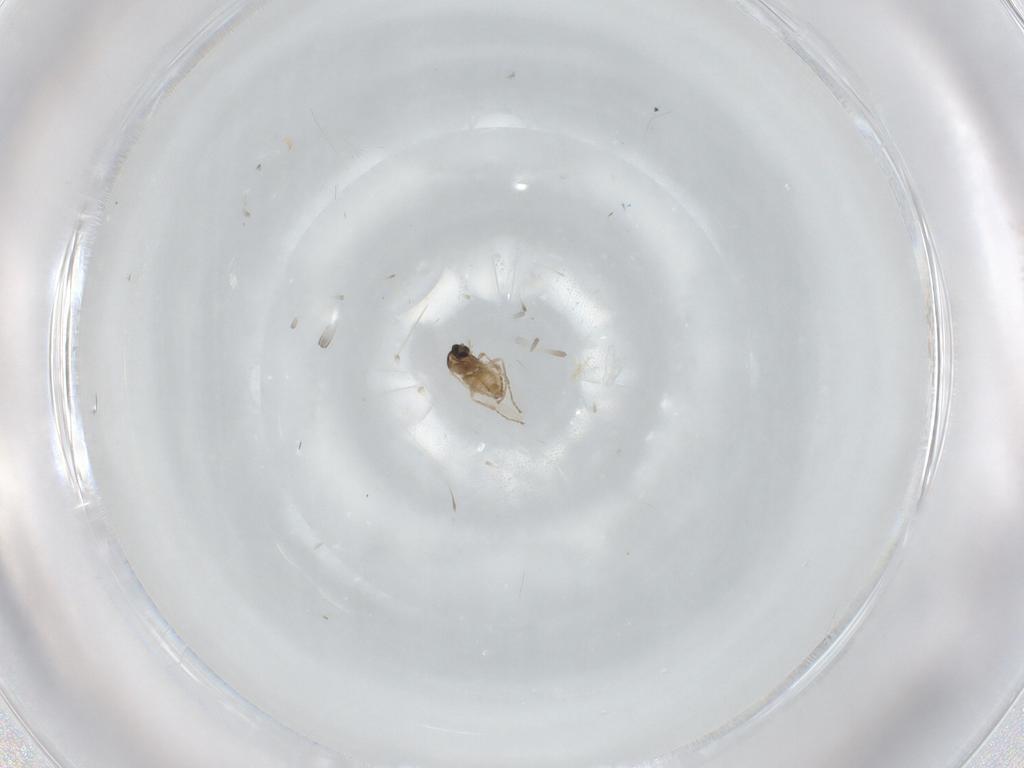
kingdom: Animalia
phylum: Arthropoda
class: Insecta
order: Diptera
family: Cecidomyiidae
